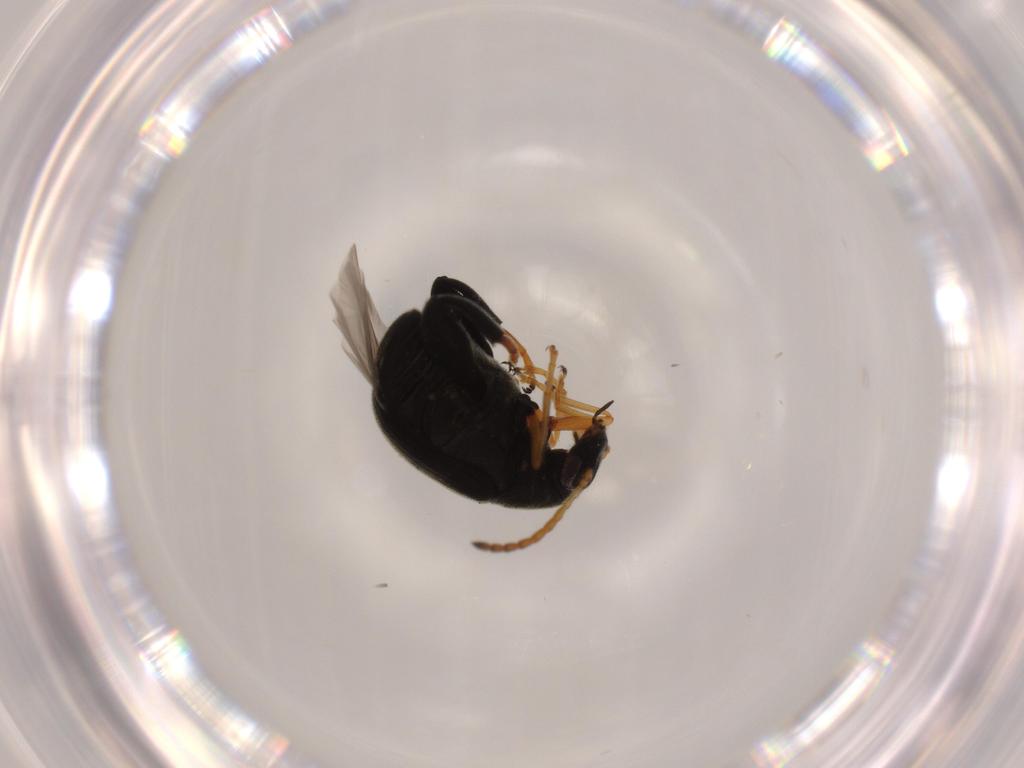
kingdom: Animalia
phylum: Arthropoda
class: Insecta
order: Coleoptera
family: Chrysomelidae
